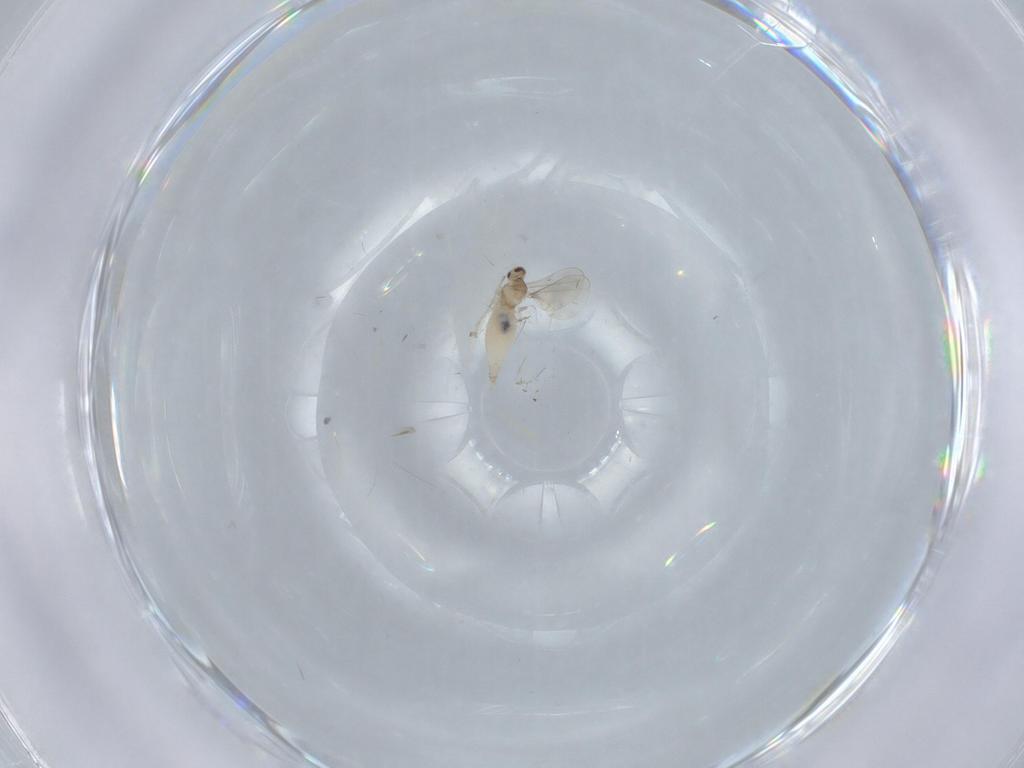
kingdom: Animalia
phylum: Arthropoda
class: Insecta
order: Diptera
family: Cecidomyiidae
